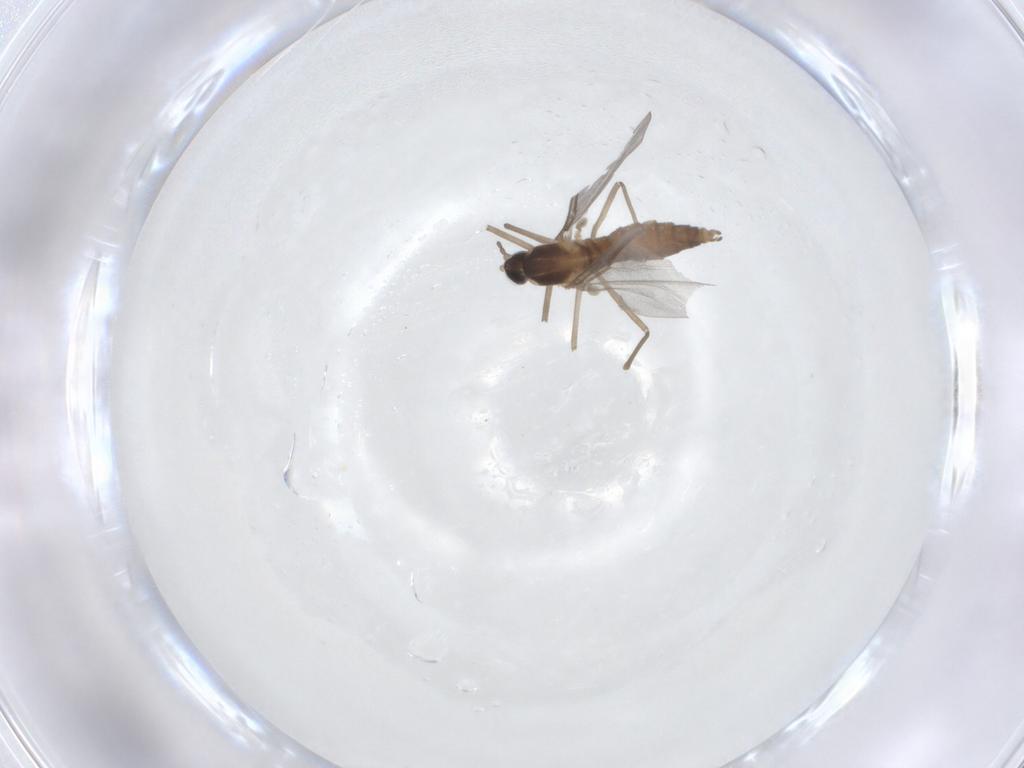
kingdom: Animalia
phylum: Arthropoda
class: Insecta
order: Diptera
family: Cecidomyiidae
